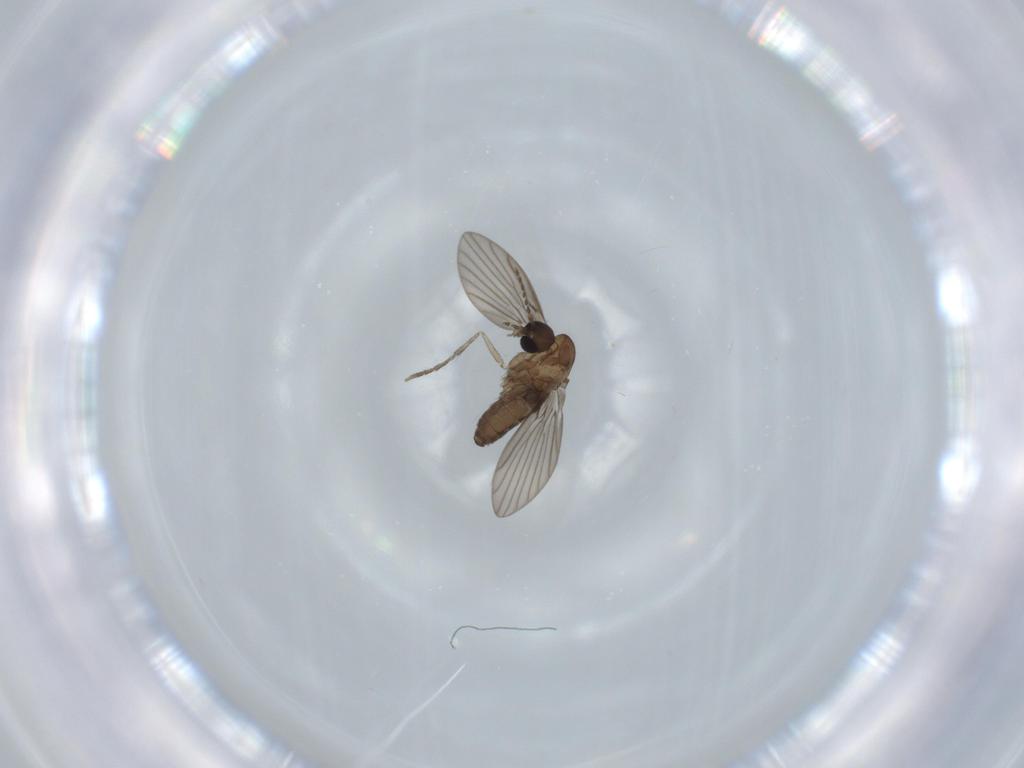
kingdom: Animalia
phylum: Arthropoda
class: Insecta
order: Diptera
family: Psychodidae
